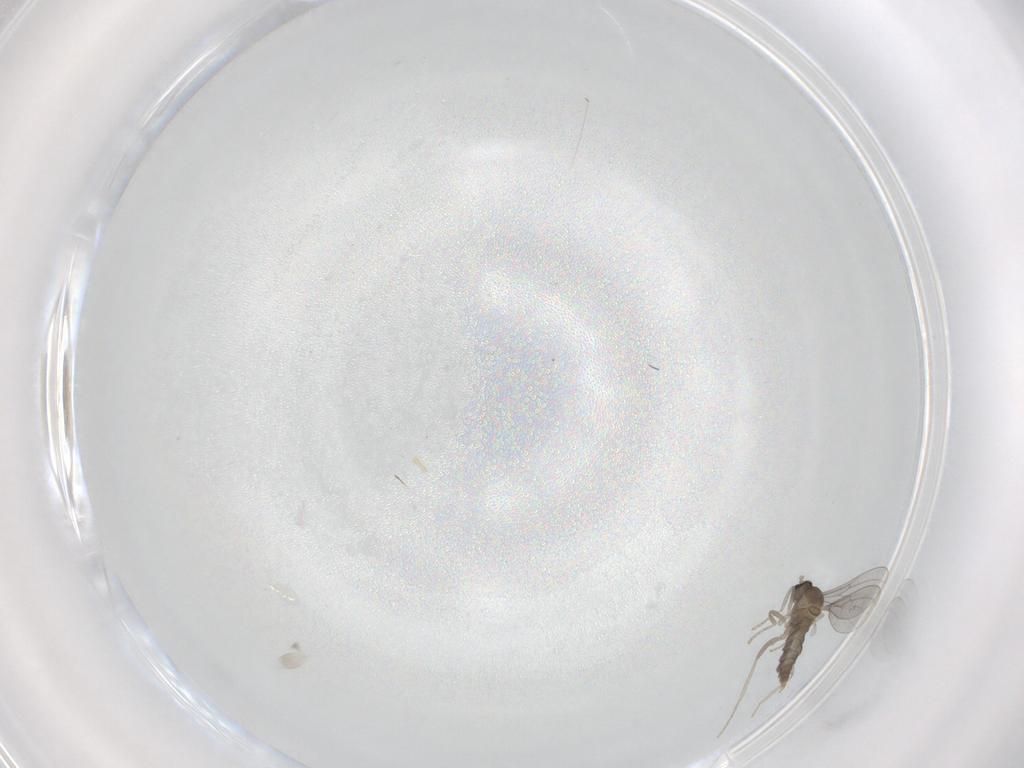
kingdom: Animalia
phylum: Arthropoda
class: Insecta
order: Diptera
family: Cecidomyiidae
